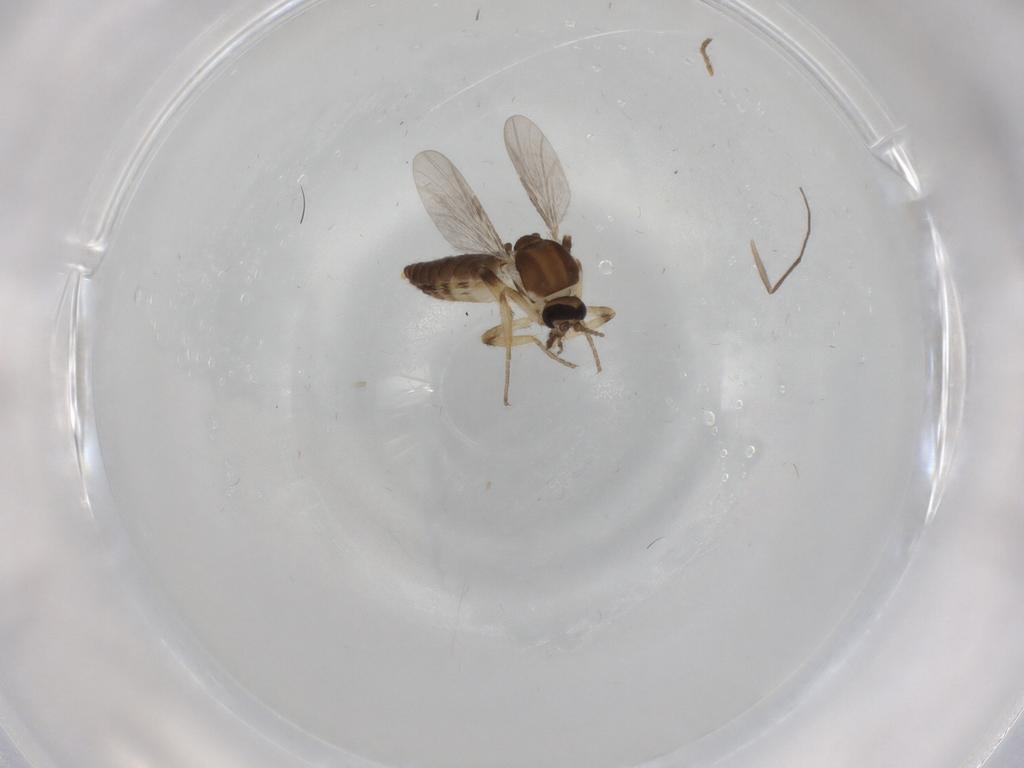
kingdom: Animalia
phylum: Arthropoda
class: Insecta
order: Diptera
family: Ceratopogonidae
